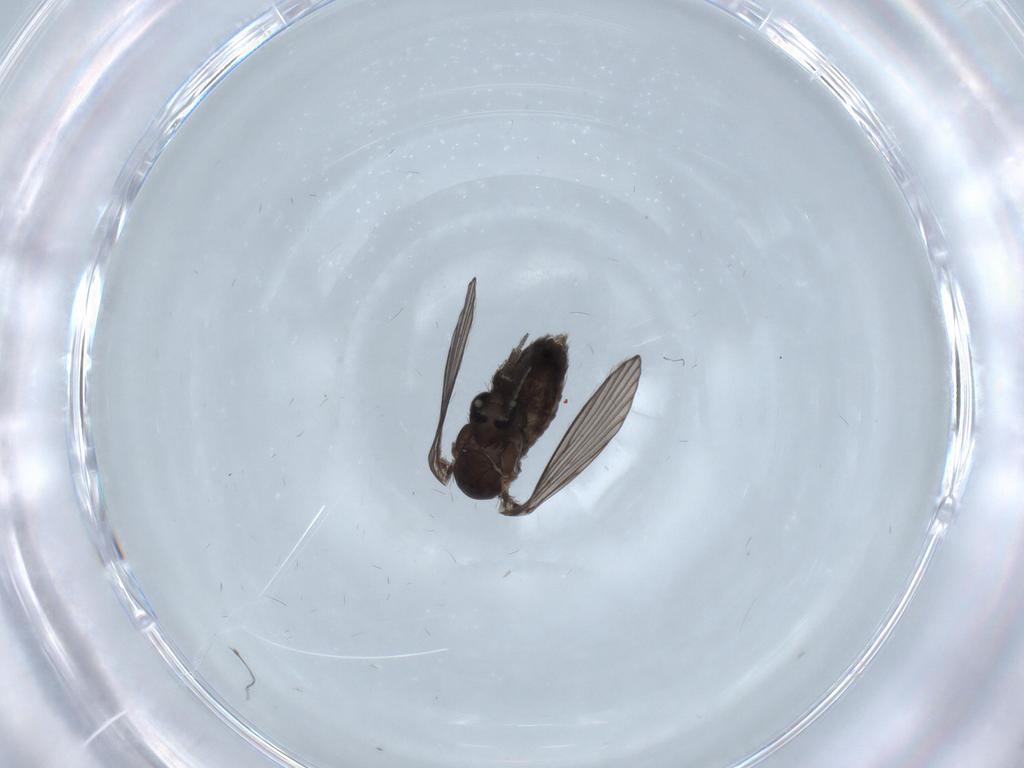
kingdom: Animalia
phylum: Arthropoda
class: Insecta
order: Diptera
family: Psychodidae
